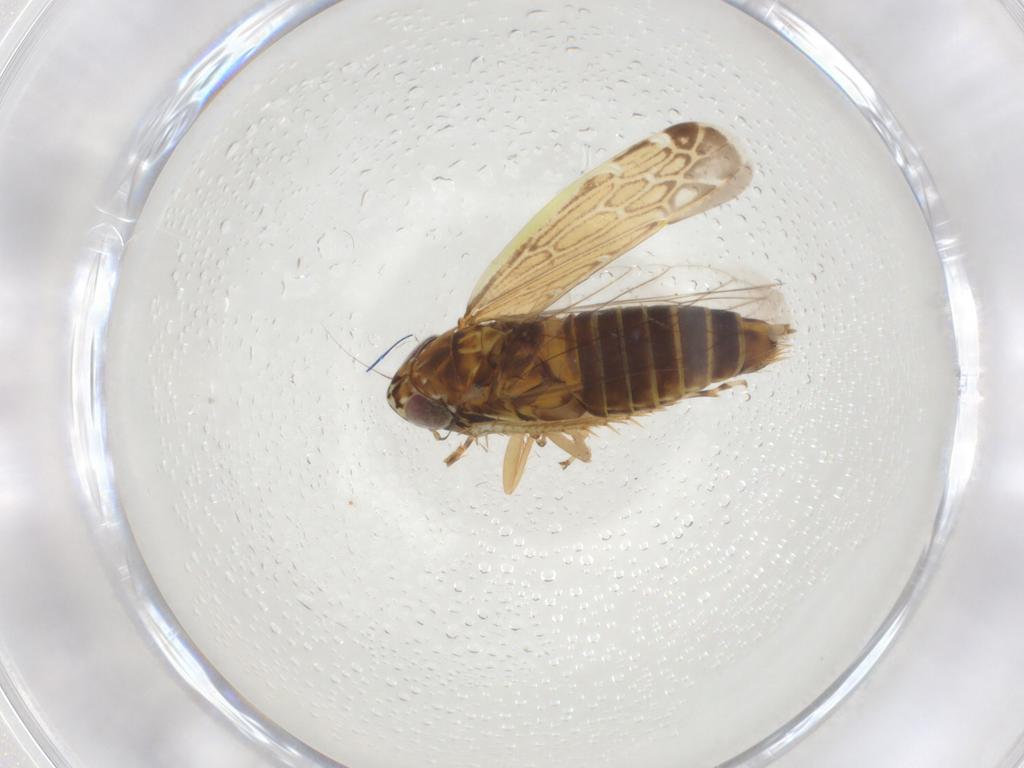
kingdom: Animalia
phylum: Arthropoda
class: Insecta
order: Hemiptera
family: Cicadellidae
